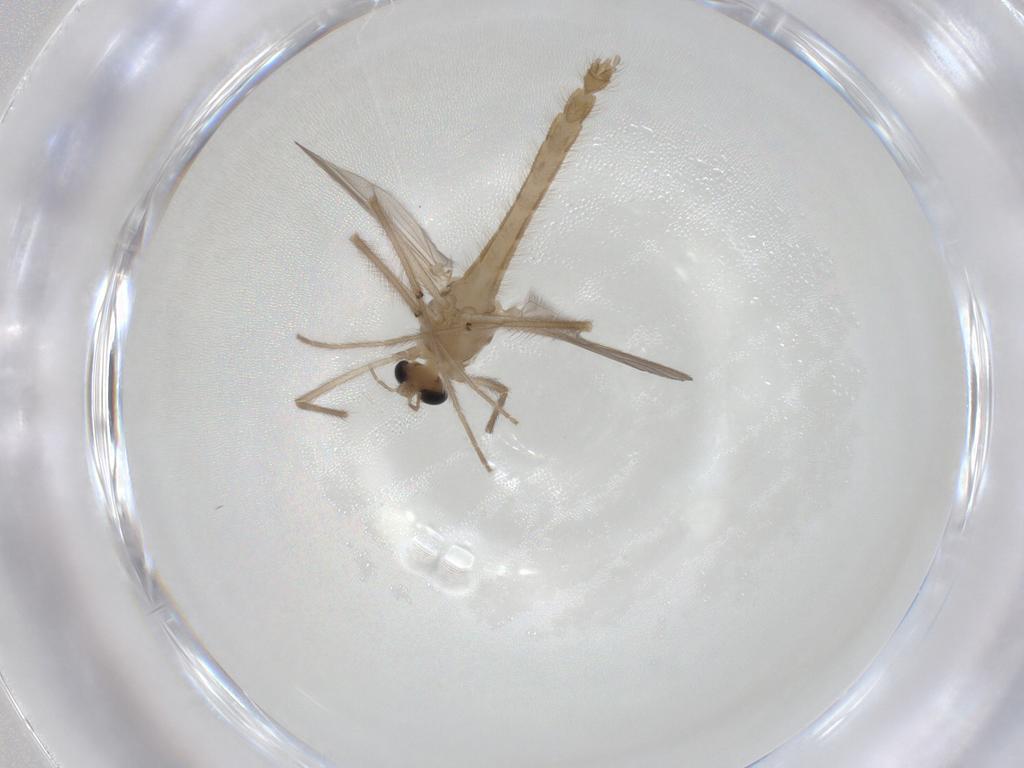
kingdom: Animalia
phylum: Arthropoda
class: Insecta
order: Diptera
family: Chironomidae
